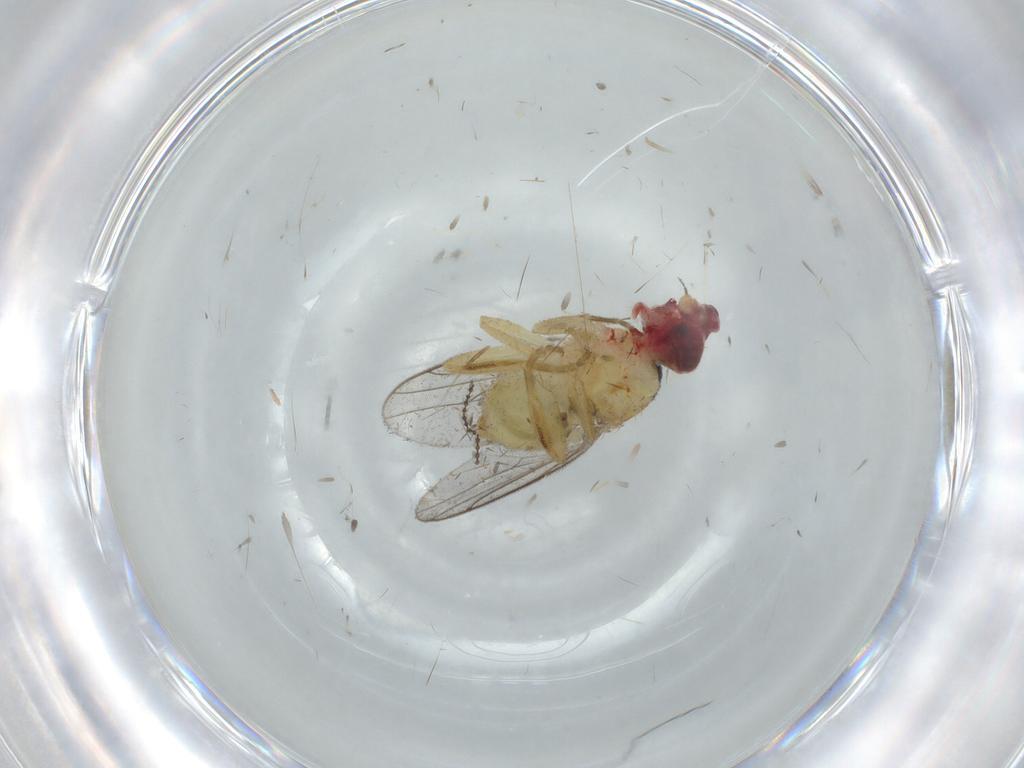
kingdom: Animalia
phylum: Arthropoda
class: Insecta
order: Diptera
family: Chloropidae
